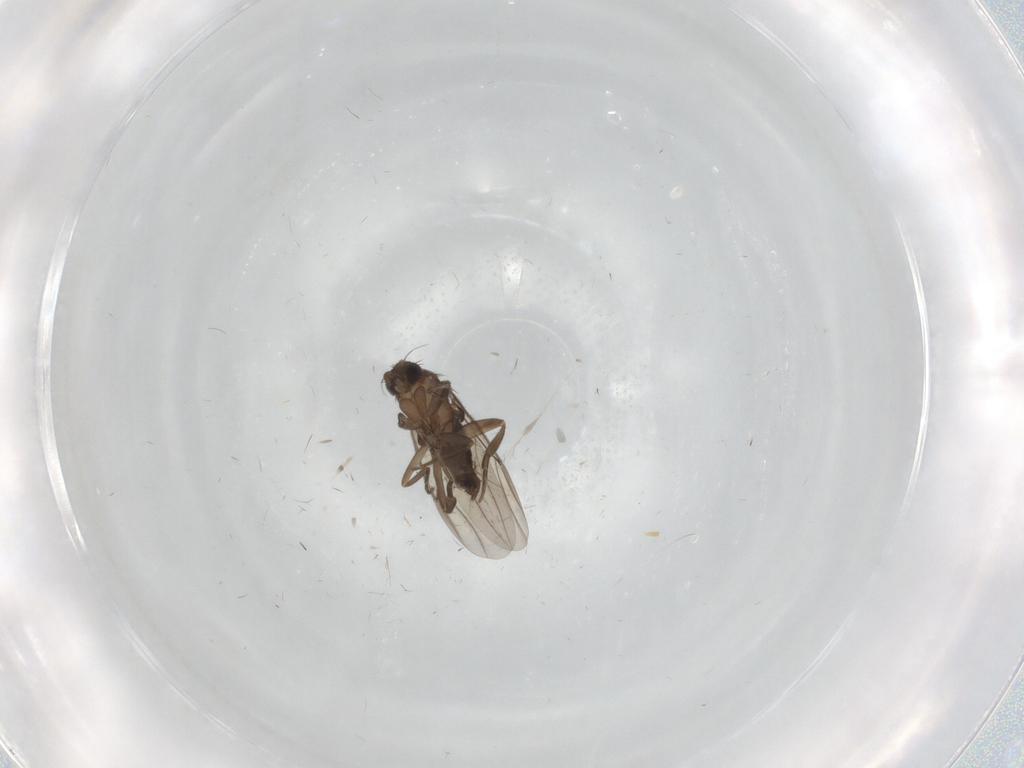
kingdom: Animalia
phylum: Arthropoda
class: Insecta
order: Diptera
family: Phoridae
